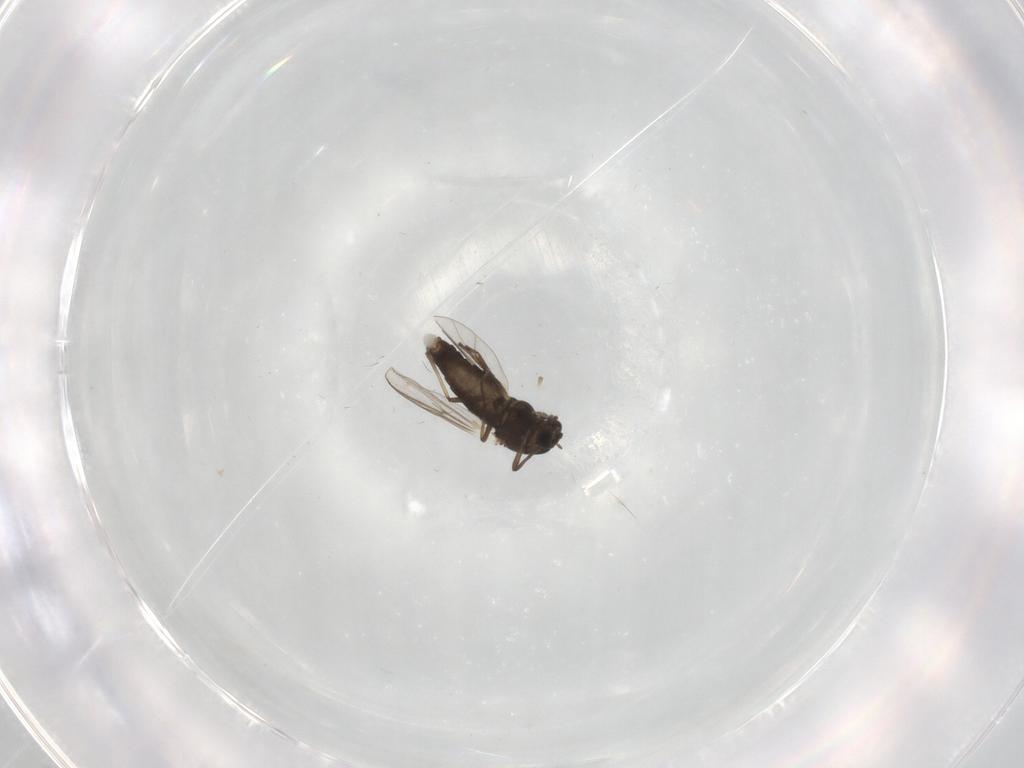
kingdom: Animalia
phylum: Arthropoda
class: Insecta
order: Diptera
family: Chironomidae
